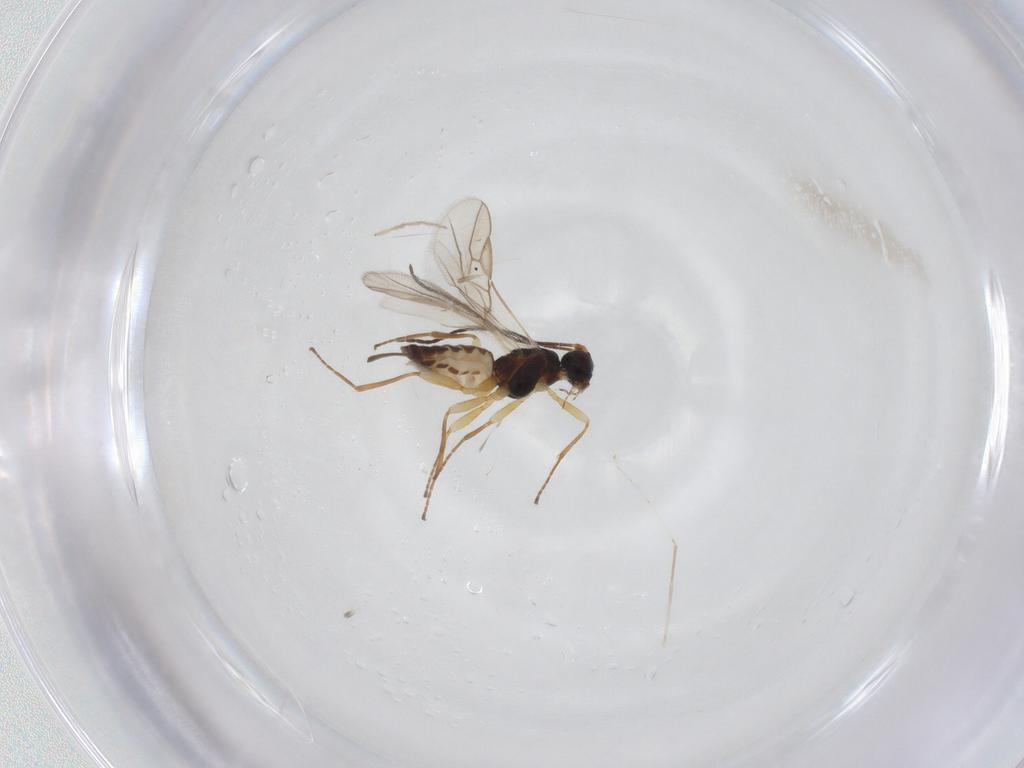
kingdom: Animalia
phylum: Arthropoda
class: Insecta
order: Hymenoptera
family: Braconidae
